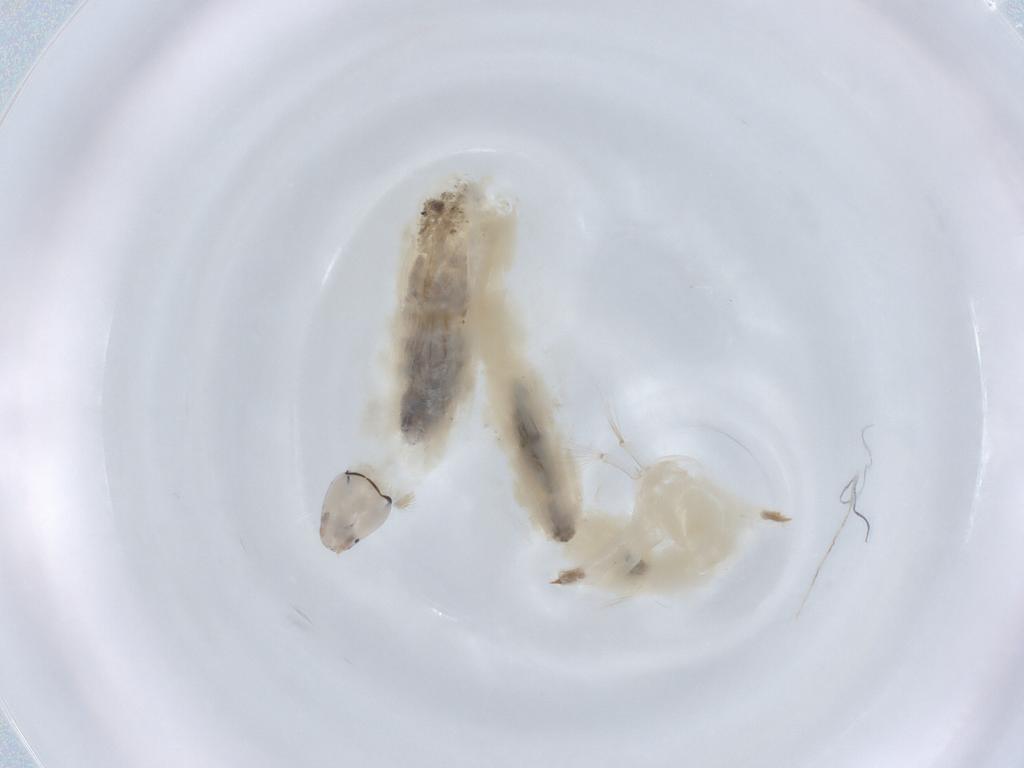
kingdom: Animalia
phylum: Arthropoda
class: Insecta
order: Diptera
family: Chironomidae
